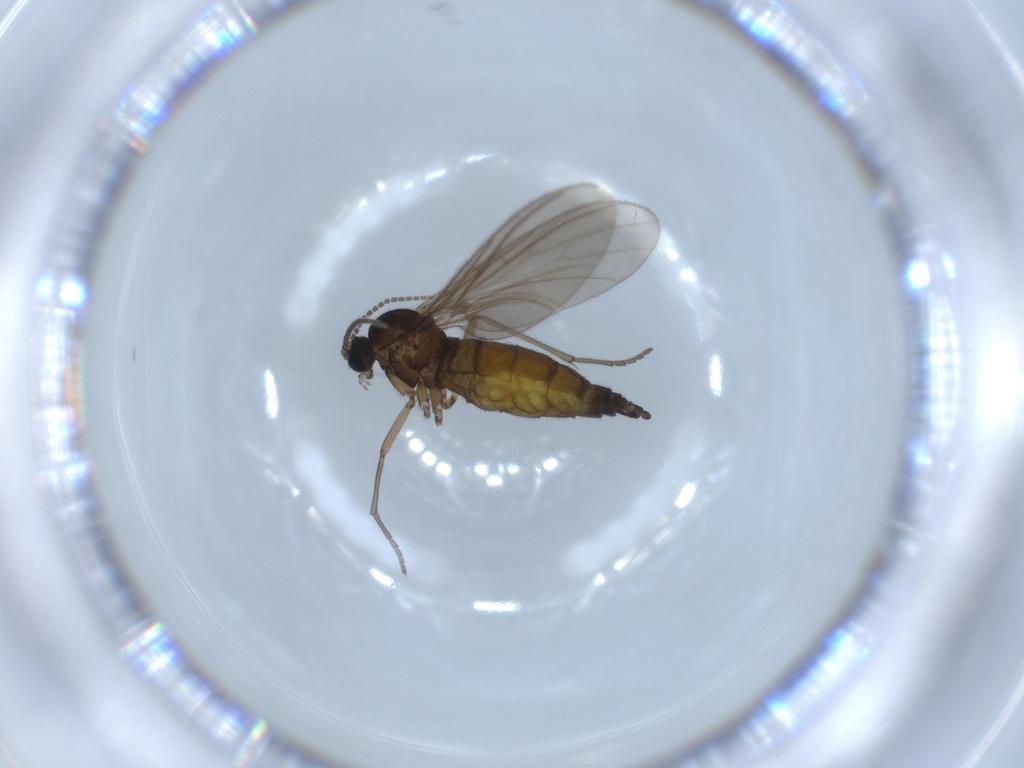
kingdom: Animalia
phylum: Arthropoda
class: Insecta
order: Diptera
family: Sciaridae
